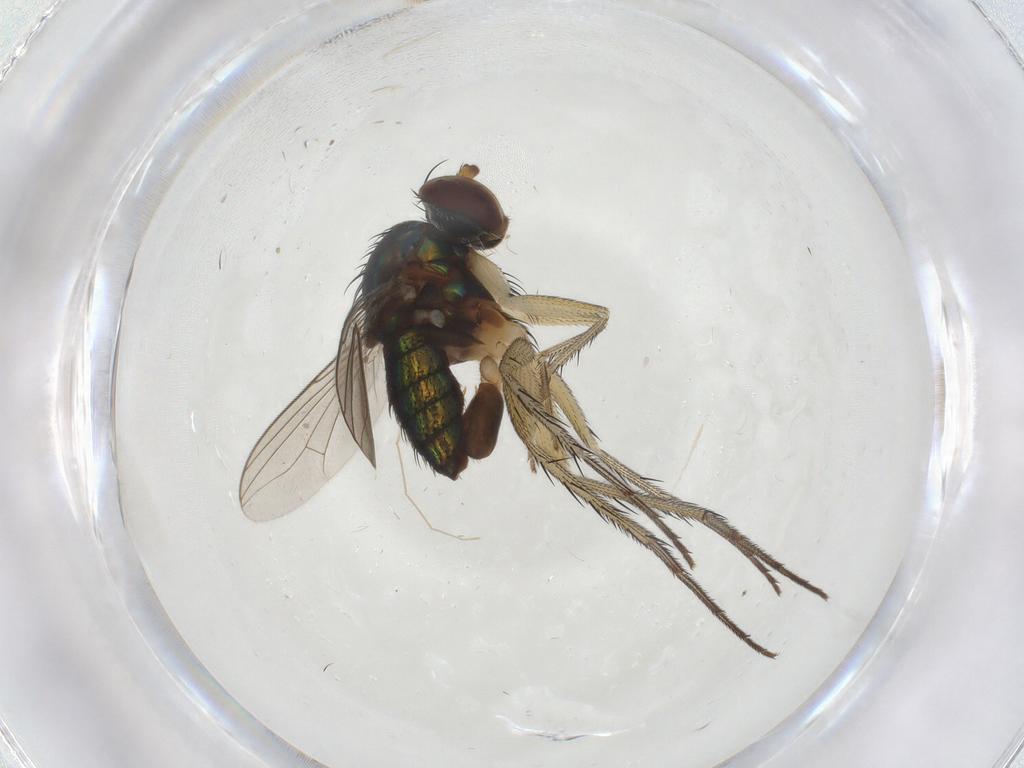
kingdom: Animalia
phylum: Arthropoda
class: Insecta
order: Diptera
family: Dolichopodidae
